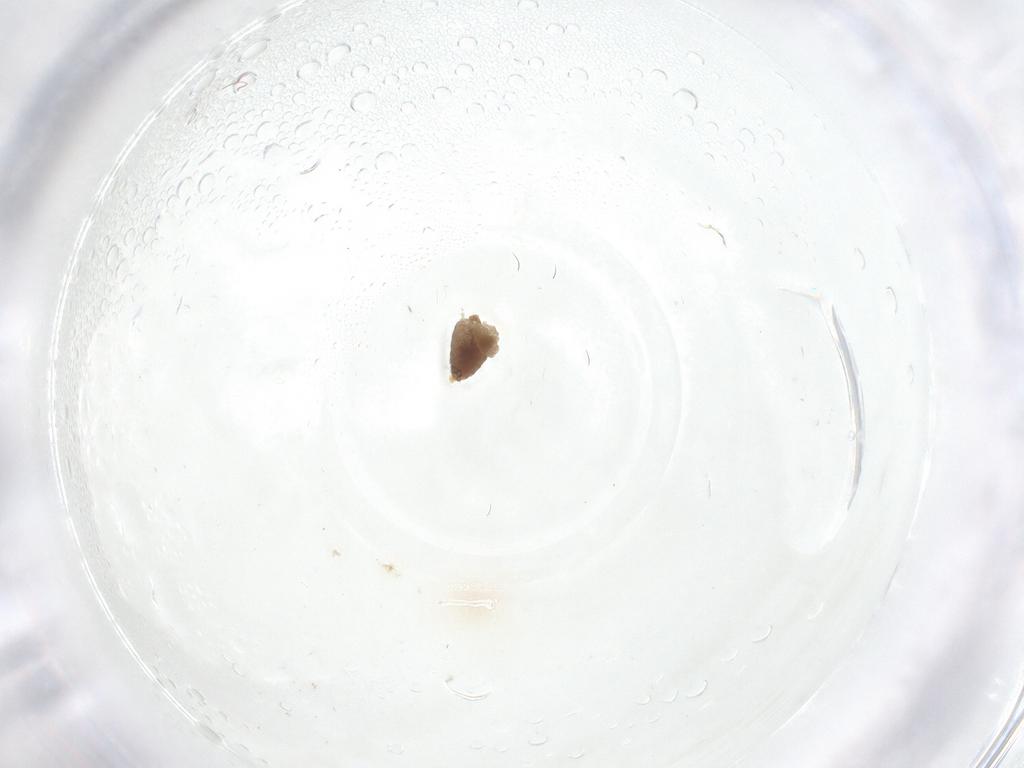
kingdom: Animalia
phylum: Arthropoda
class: Insecta
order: Diptera
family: Chironomidae
